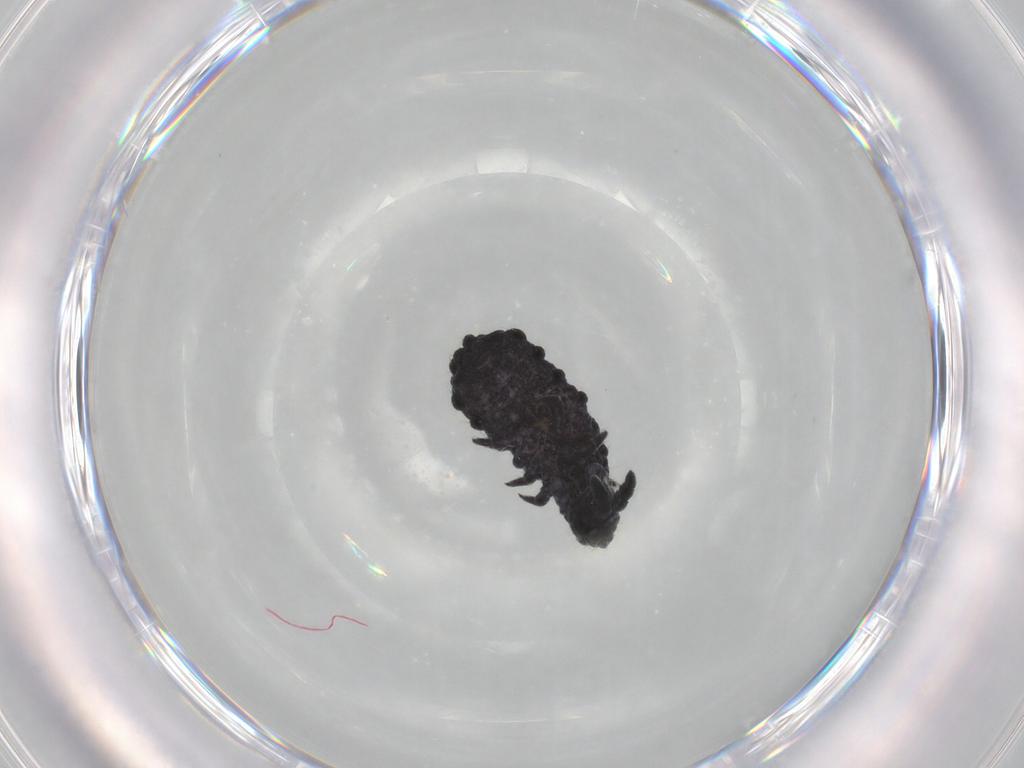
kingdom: Animalia
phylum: Arthropoda
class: Collembola
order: Poduromorpha
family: Neanuridae
